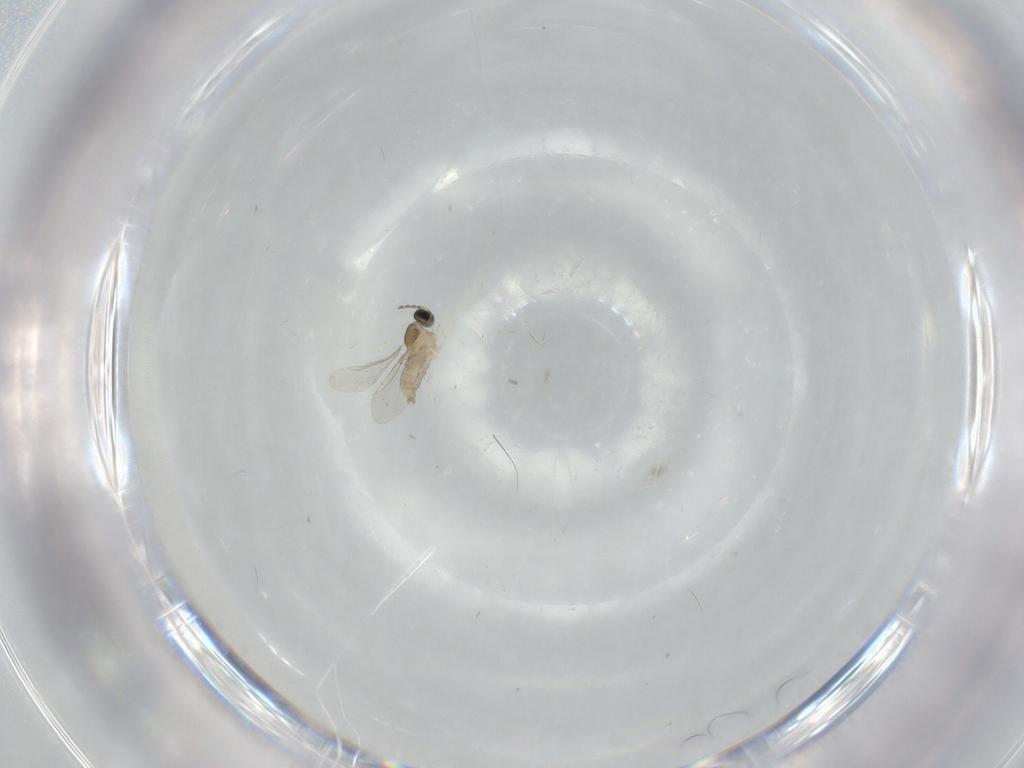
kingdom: Animalia
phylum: Arthropoda
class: Insecta
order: Diptera
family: Cecidomyiidae
